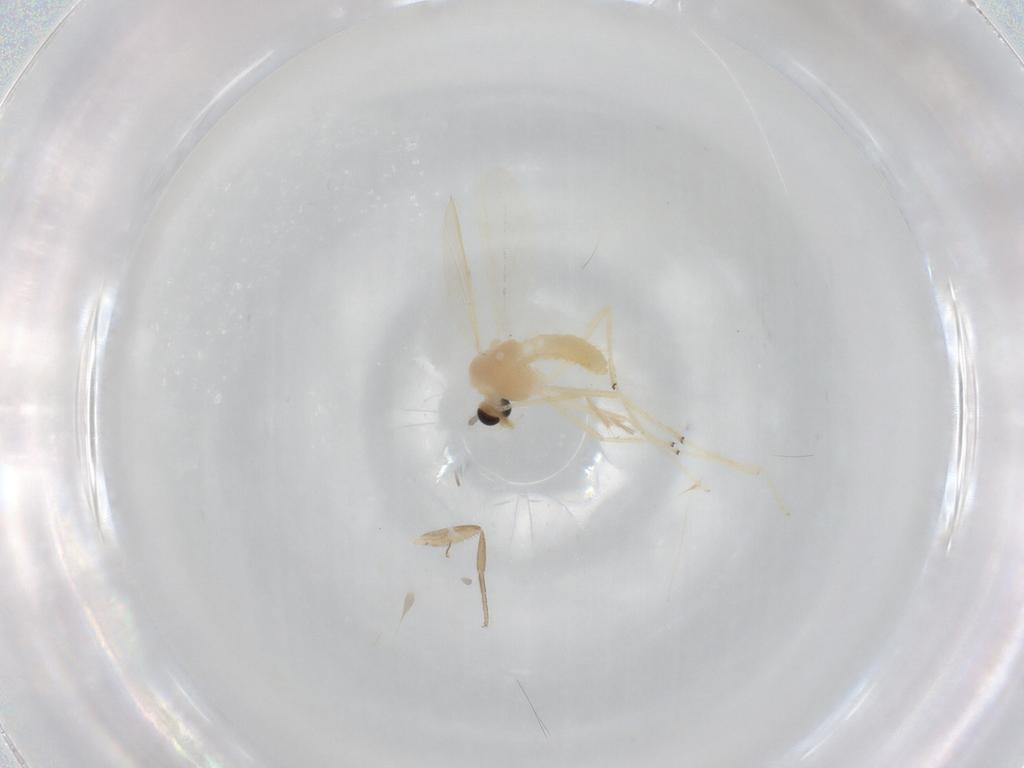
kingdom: Animalia
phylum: Arthropoda
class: Insecta
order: Diptera
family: Chironomidae
